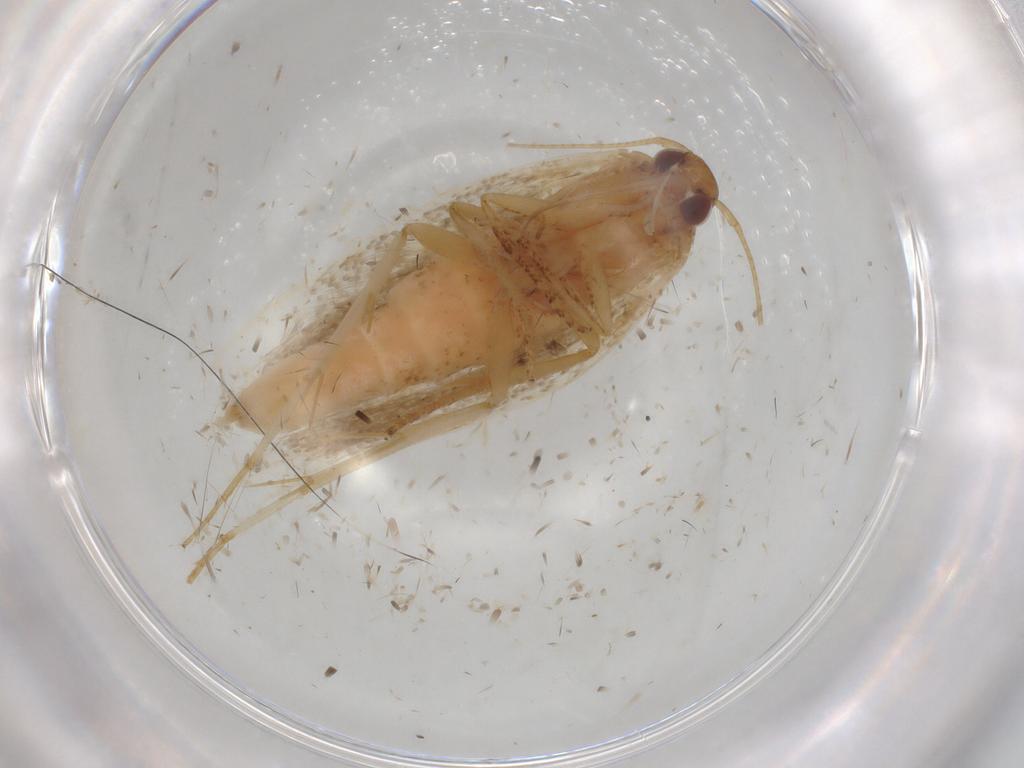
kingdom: Animalia
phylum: Arthropoda
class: Insecta
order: Lepidoptera
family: Gelechiidae
